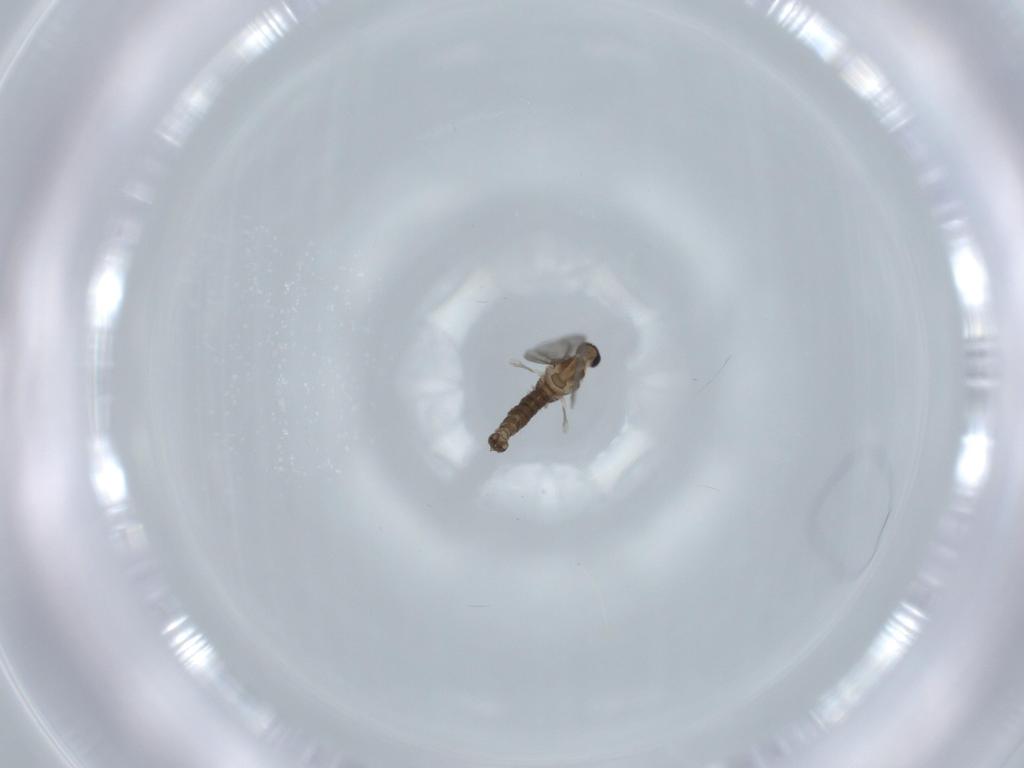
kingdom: Animalia
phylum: Arthropoda
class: Insecta
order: Diptera
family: Cecidomyiidae
